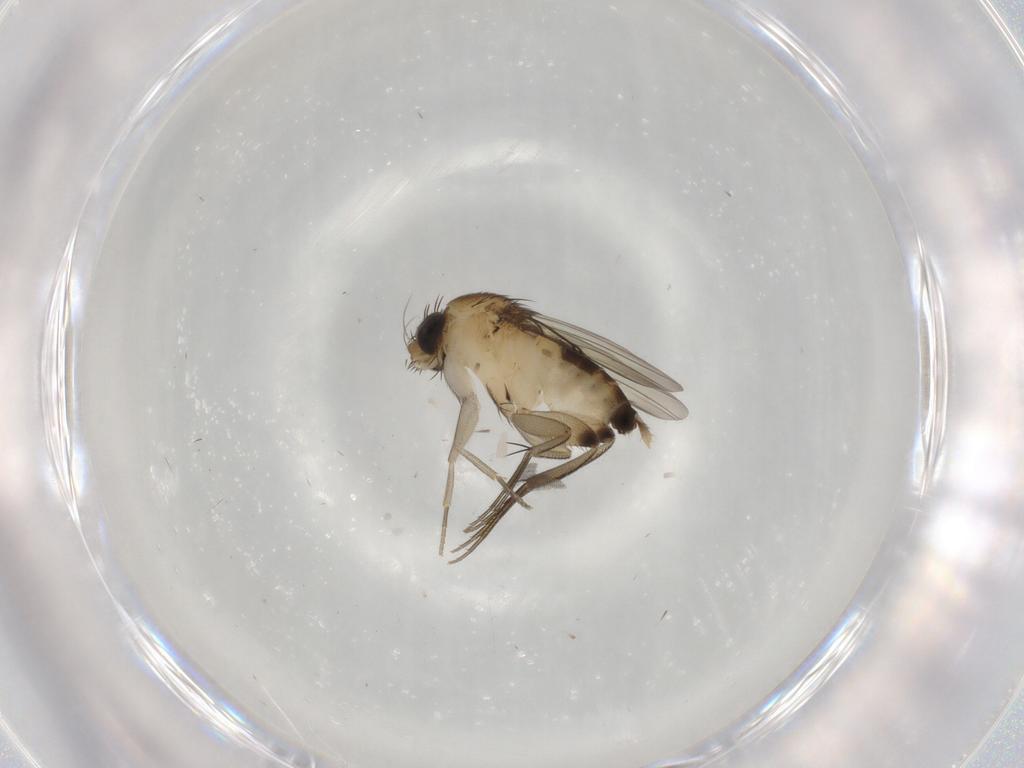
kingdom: Animalia
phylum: Arthropoda
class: Insecta
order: Diptera
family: Phoridae
